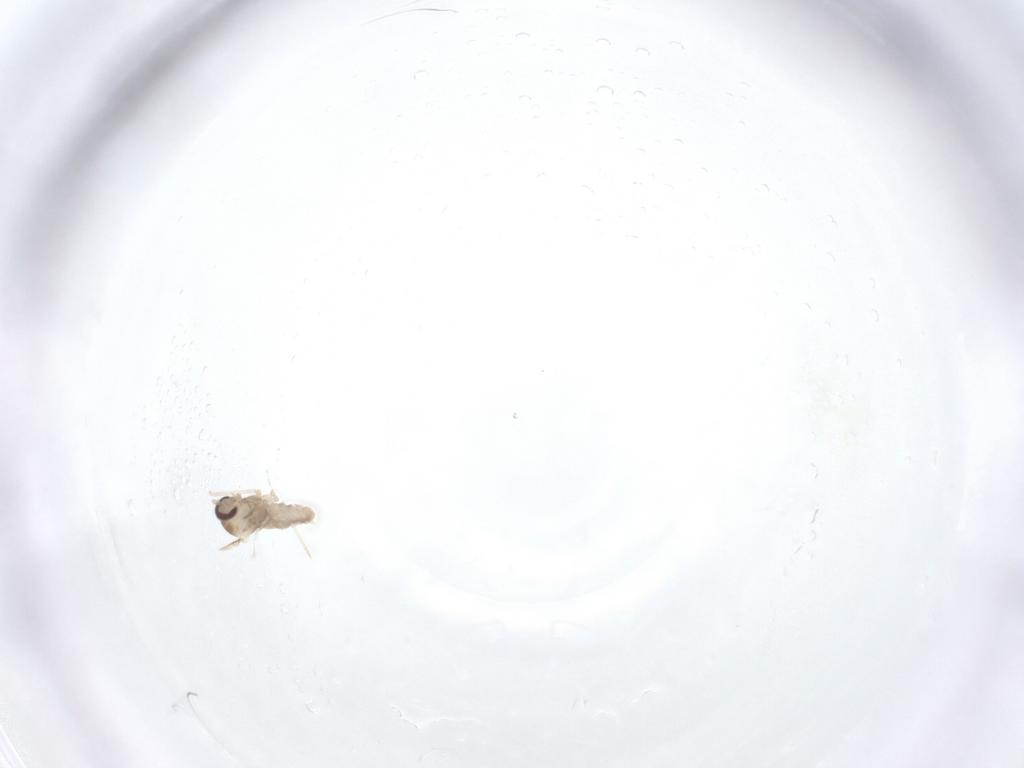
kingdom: Animalia
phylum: Arthropoda
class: Insecta
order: Diptera
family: Cecidomyiidae
